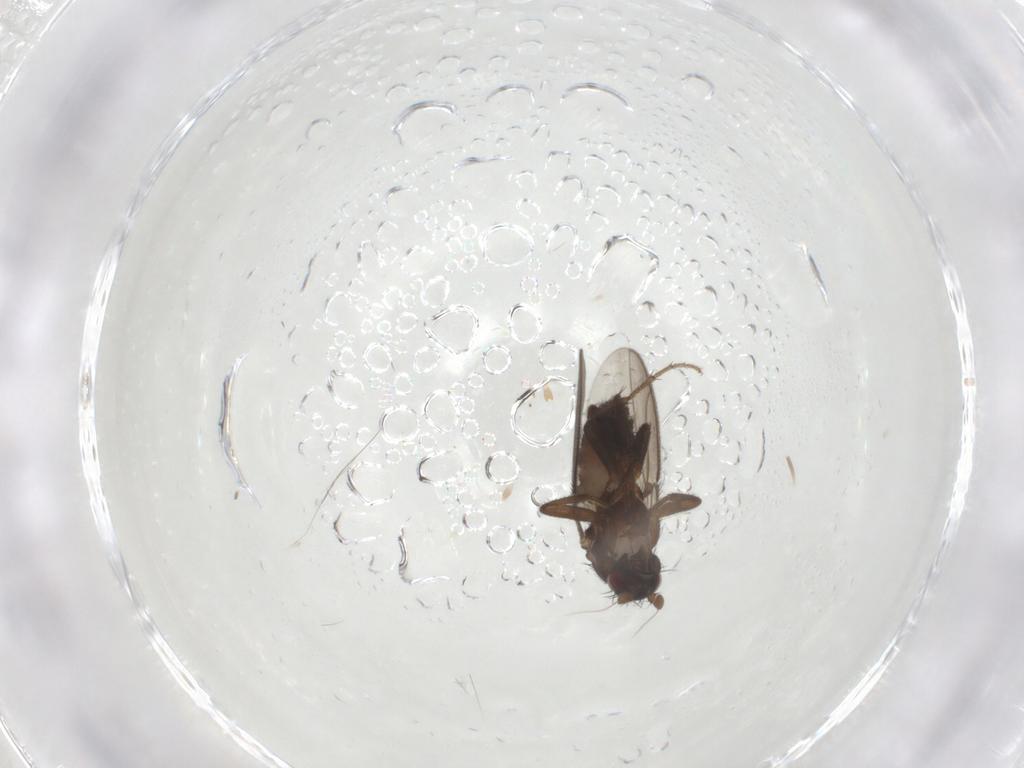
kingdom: Animalia
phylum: Arthropoda
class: Insecta
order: Diptera
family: Sphaeroceridae
